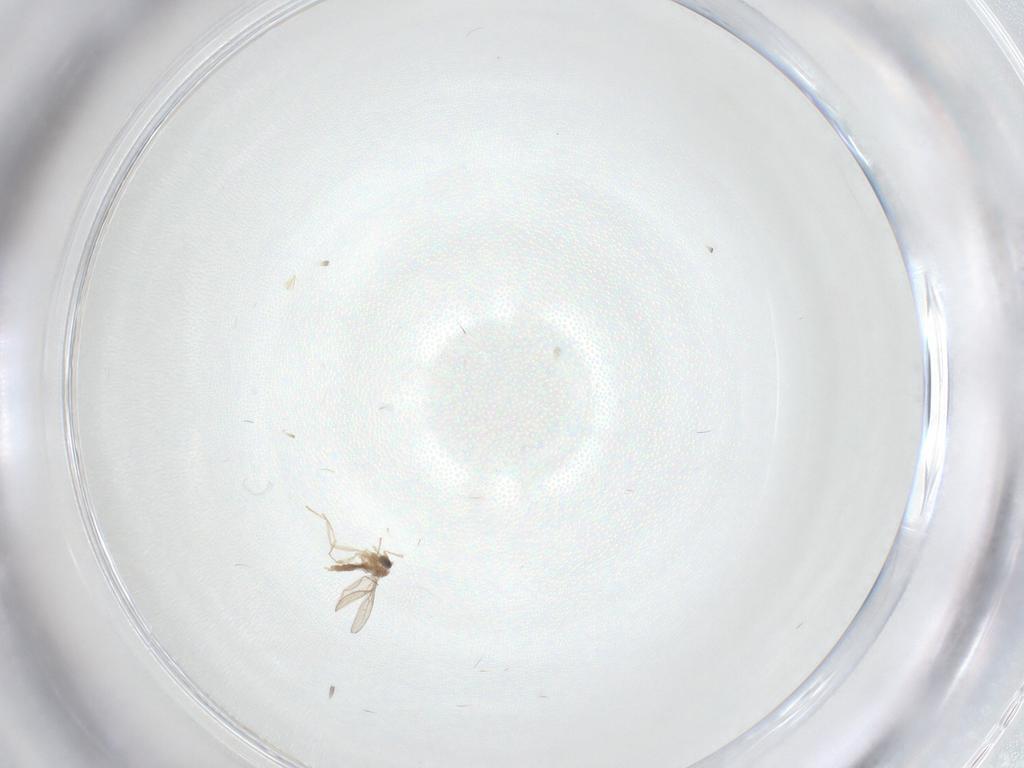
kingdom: Animalia
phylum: Arthropoda
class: Insecta
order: Diptera
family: Cecidomyiidae
